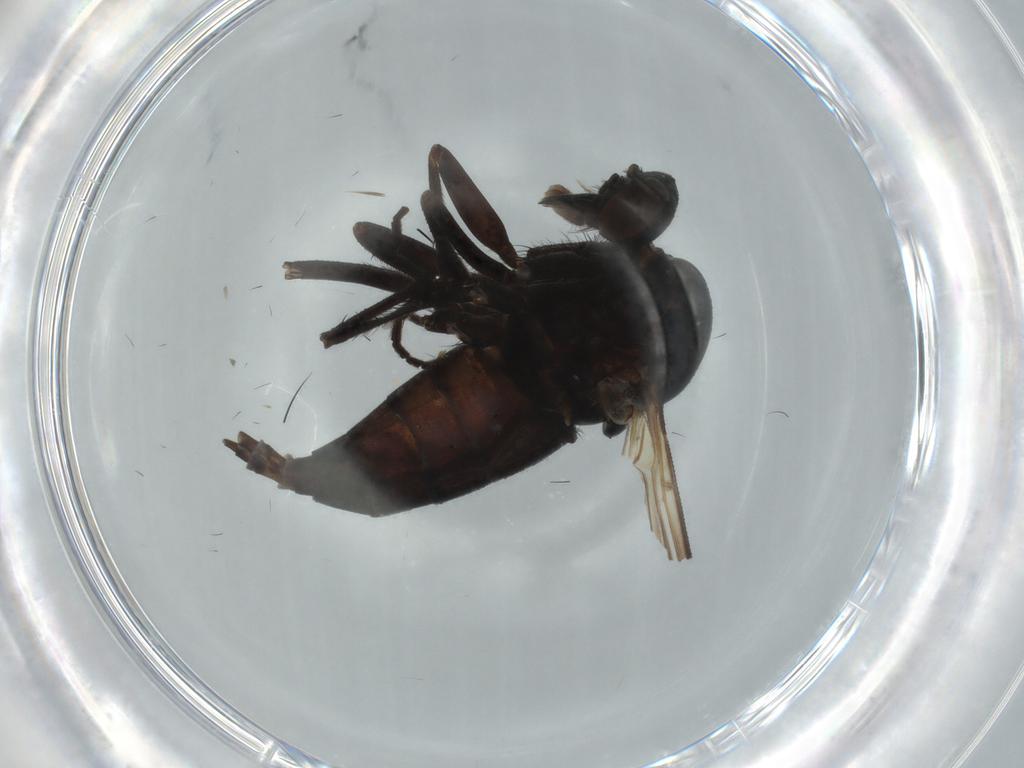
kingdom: Animalia
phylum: Arthropoda
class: Insecta
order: Diptera
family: Empididae
